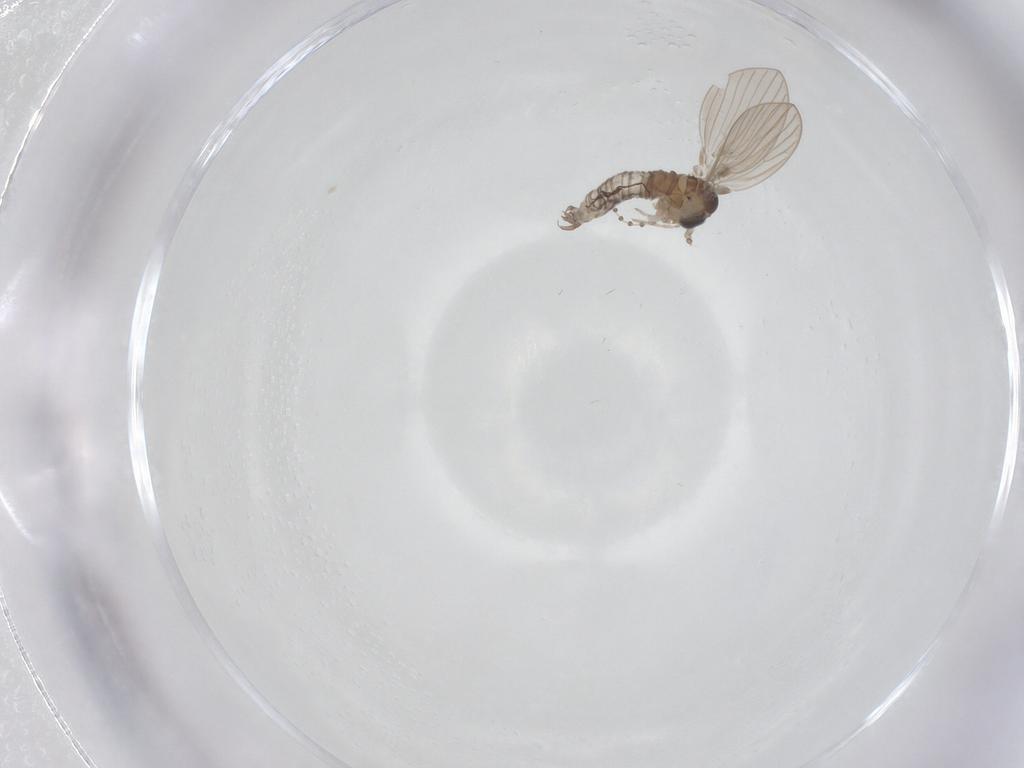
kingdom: Animalia
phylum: Arthropoda
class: Insecta
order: Diptera
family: Psychodidae
